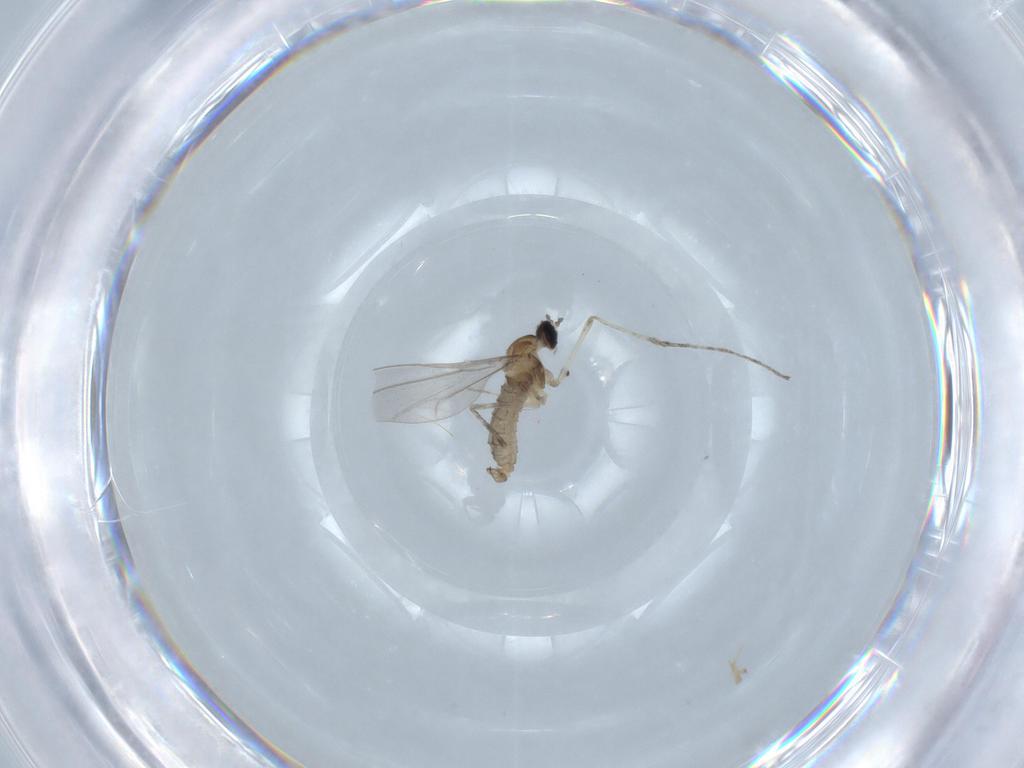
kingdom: Animalia
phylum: Arthropoda
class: Insecta
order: Diptera
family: Cecidomyiidae
